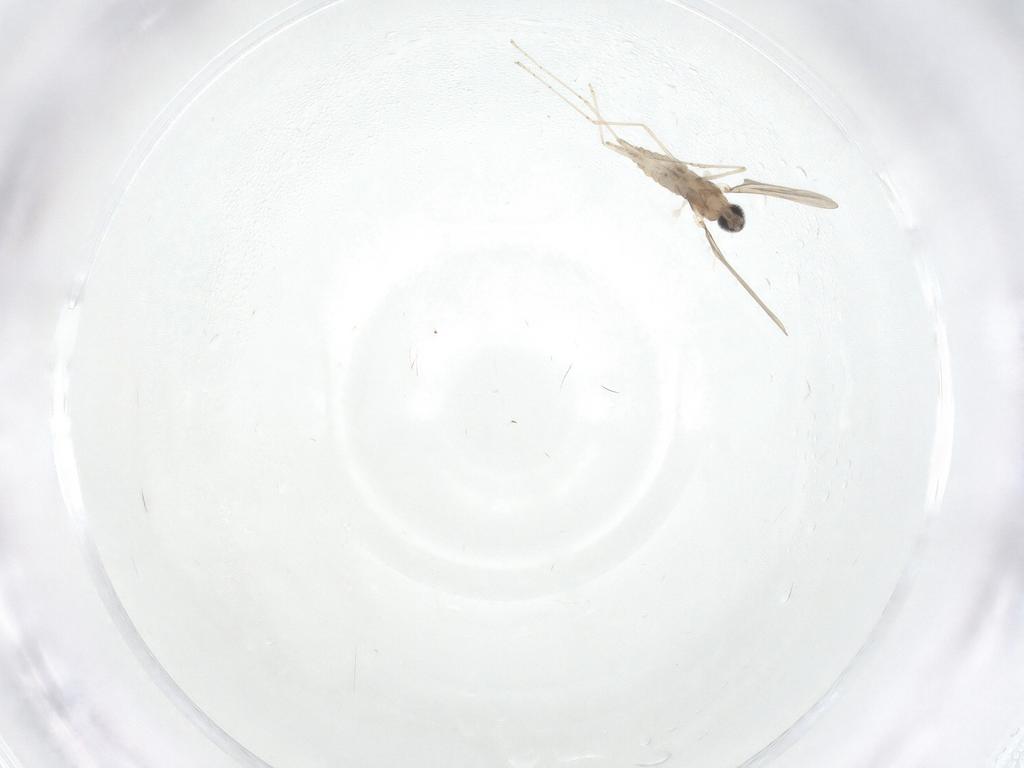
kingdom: Animalia
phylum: Arthropoda
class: Insecta
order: Diptera
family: Cecidomyiidae
